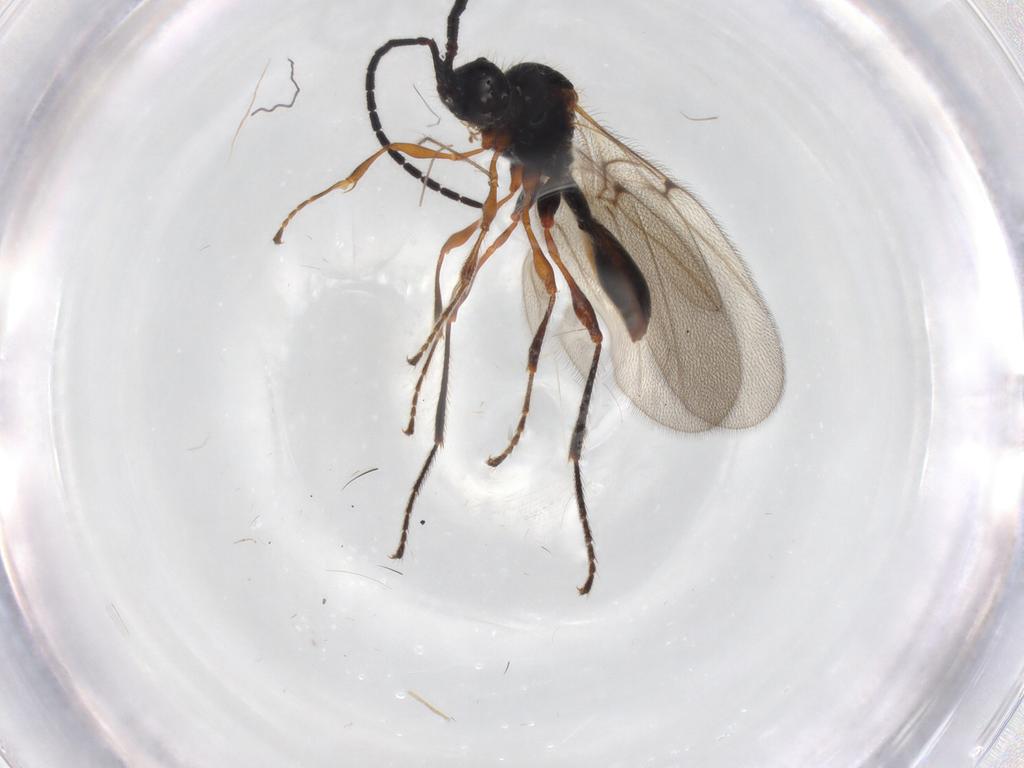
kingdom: Animalia
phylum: Arthropoda
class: Insecta
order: Hymenoptera
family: Diapriidae
